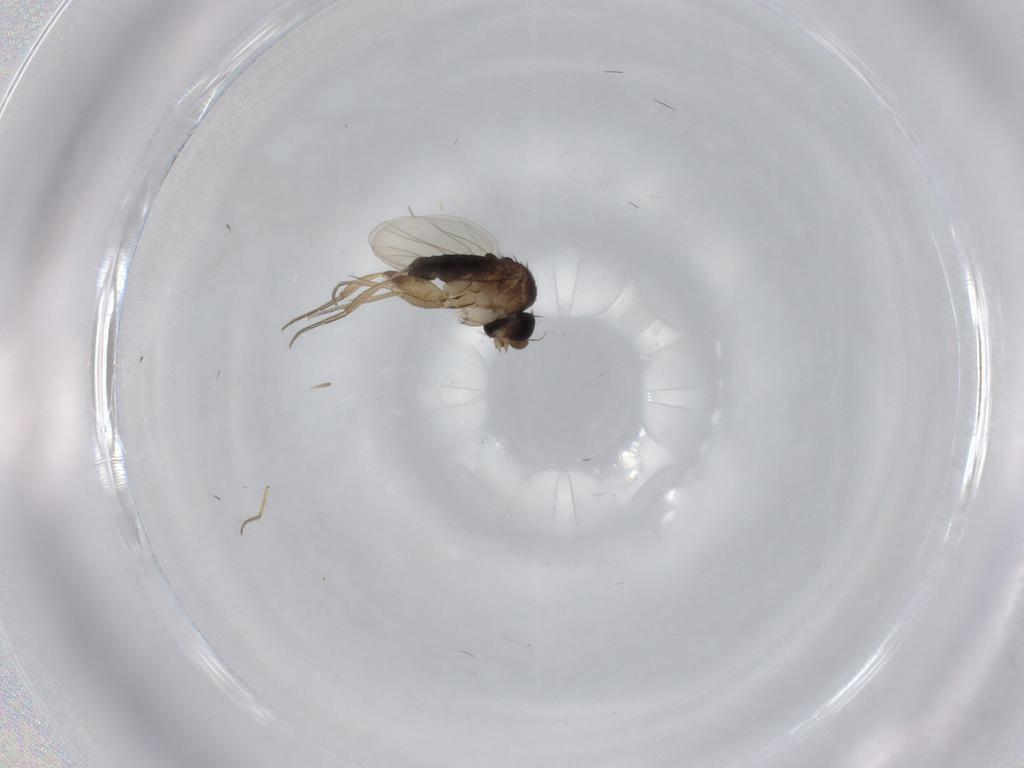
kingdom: Animalia
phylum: Arthropoda
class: Insecta
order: Diptera
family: Phoridae
